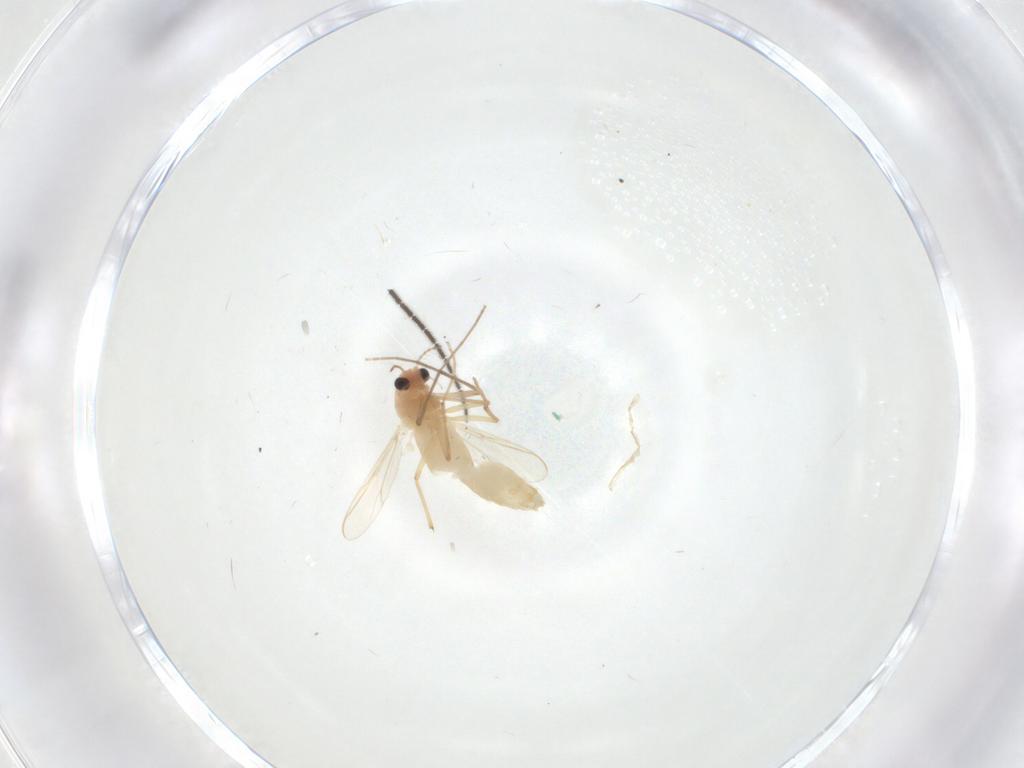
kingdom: Animalia
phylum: Arthropoda
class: Insecta
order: Diptera
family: Chironomidae
